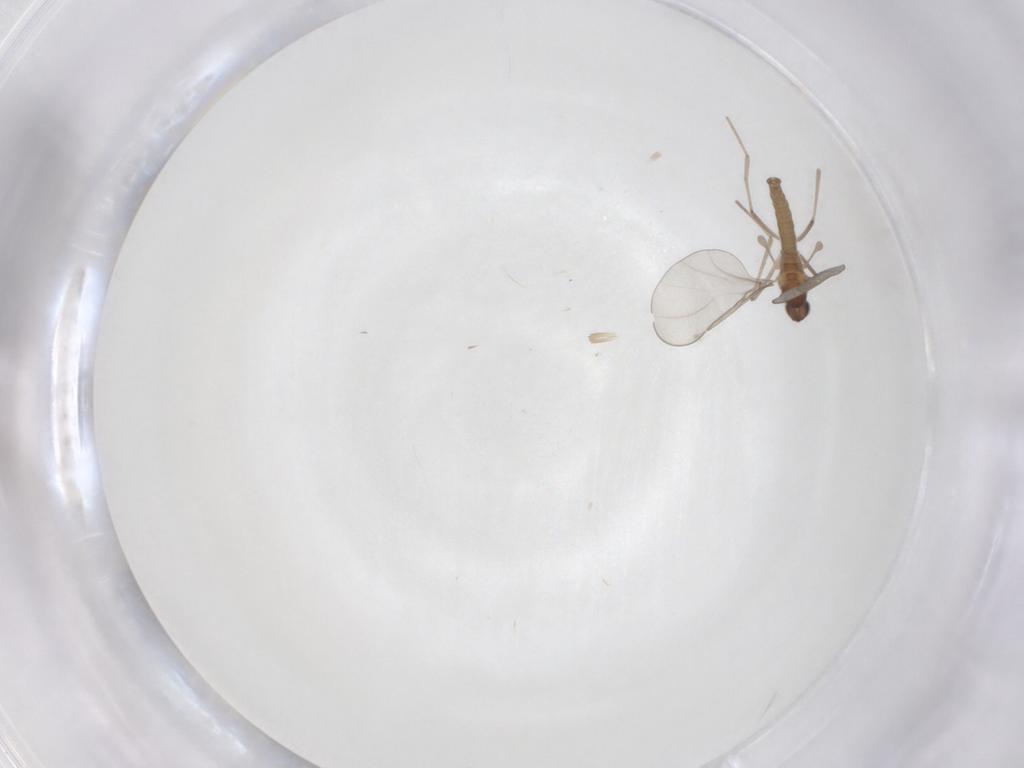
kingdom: Animalia
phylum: Arthropoda
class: Insecta
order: Diptera
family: Cecidomyiidae
